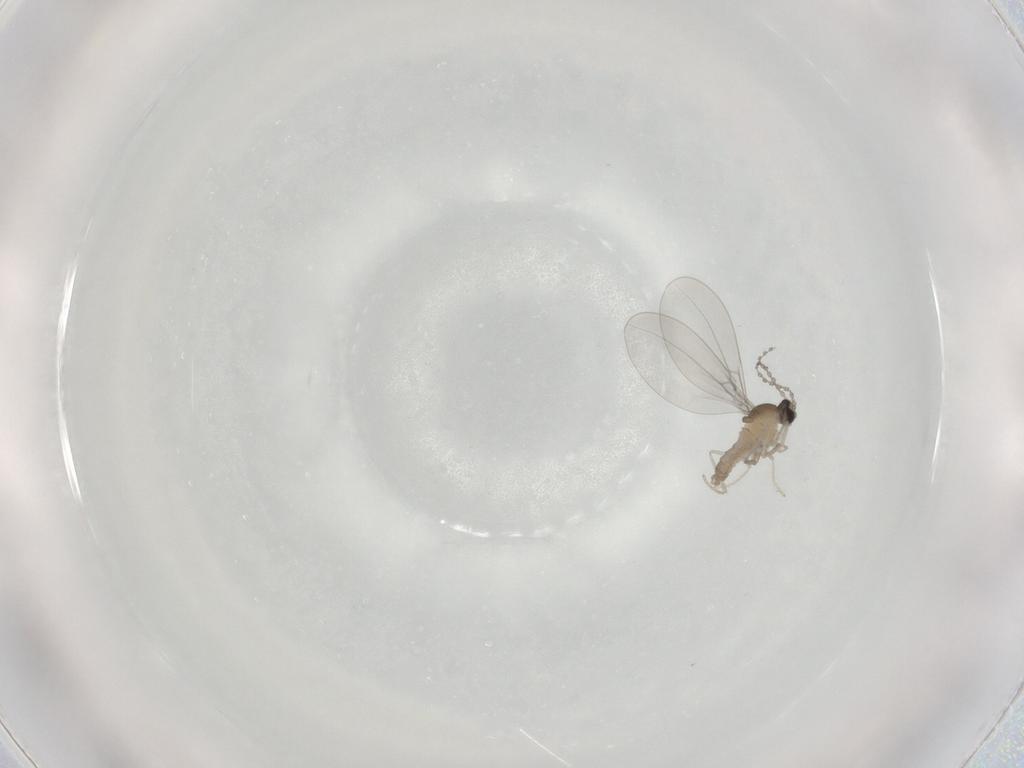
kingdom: Animalia
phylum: Arthropoda
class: Insecta
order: Diptera
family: Cecidomyiidae
